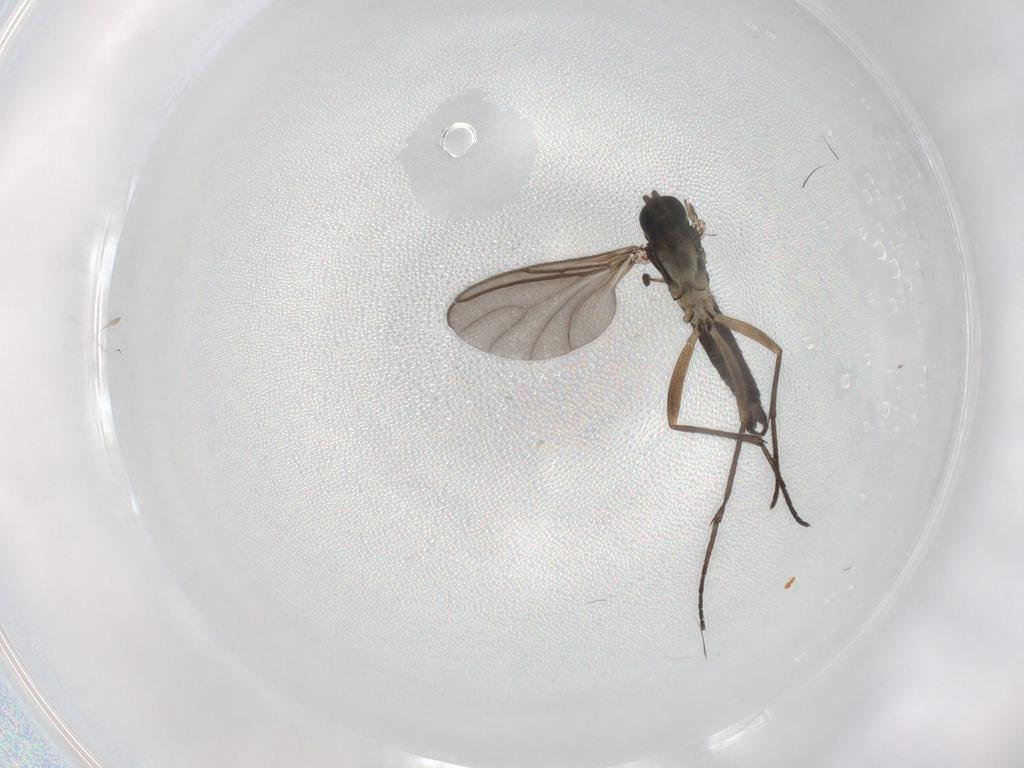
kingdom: Animalia
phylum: Arthropoda
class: Insecta
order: Diptera
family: Sciaridae
